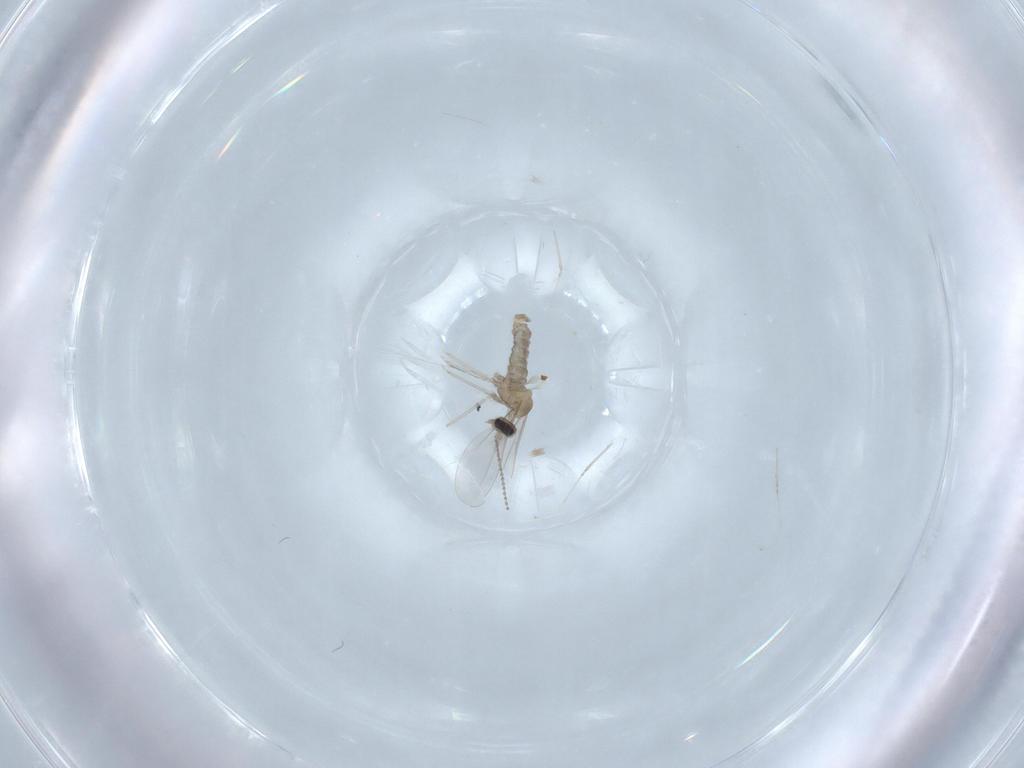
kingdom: Animalia
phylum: Arthropoda
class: Insecta
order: Diptera
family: Cecidomyiidae
